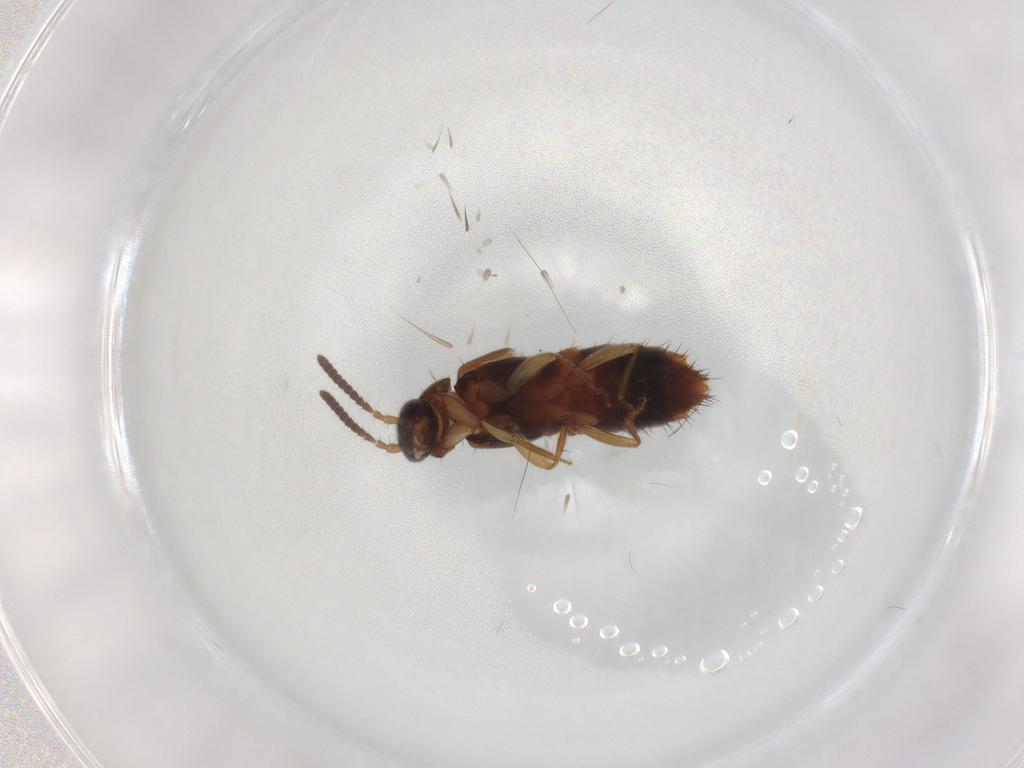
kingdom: Animalia
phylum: Arthropoda
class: Insecta
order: Coleoptera
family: Staphylinidae
